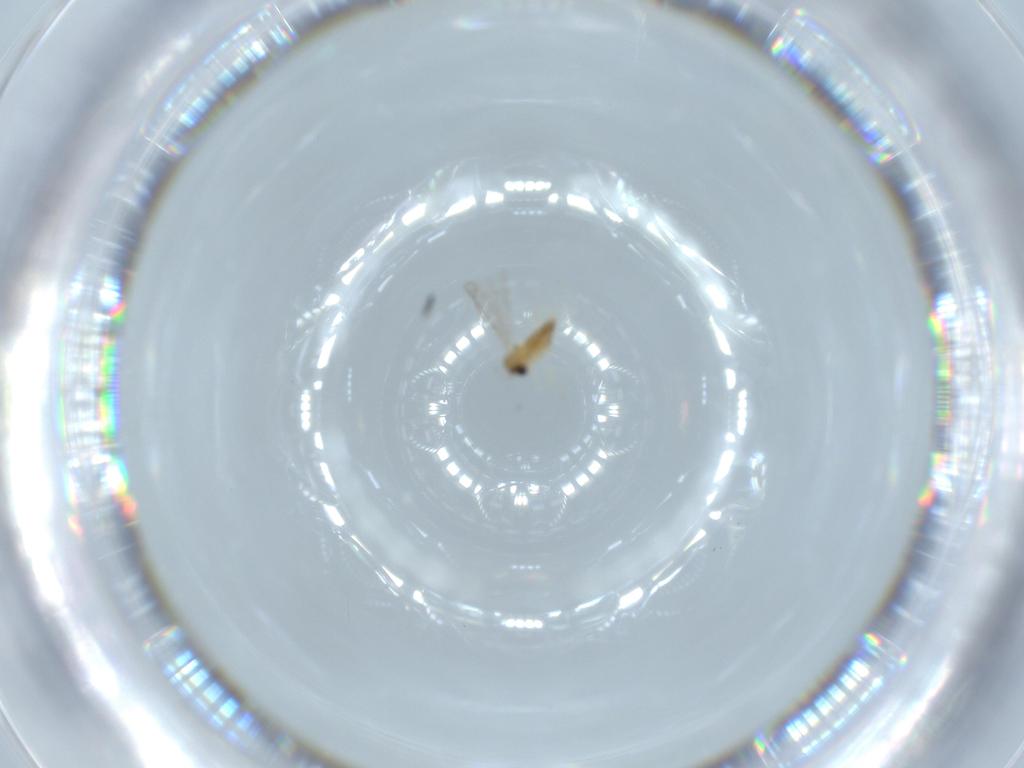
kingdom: Animalia
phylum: Arthropoda
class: Insecta
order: Diptera
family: Cecidomyiidae
